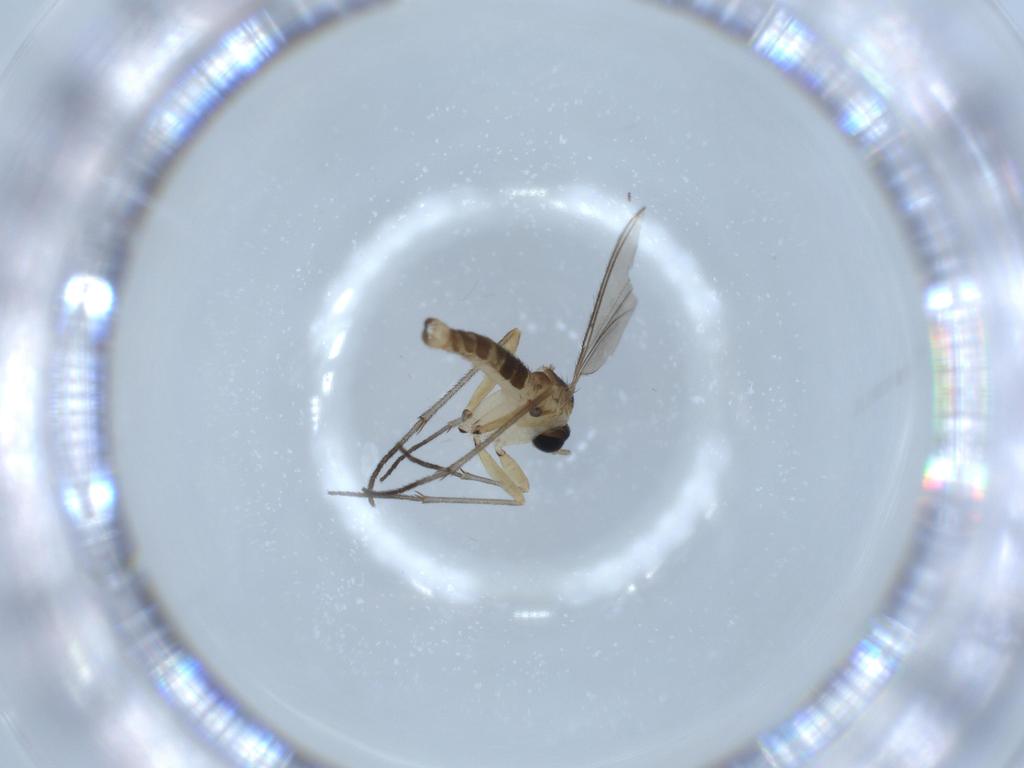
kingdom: Animalia
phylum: Arthropoda
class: Insecta
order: Diptera
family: Sciaridae
